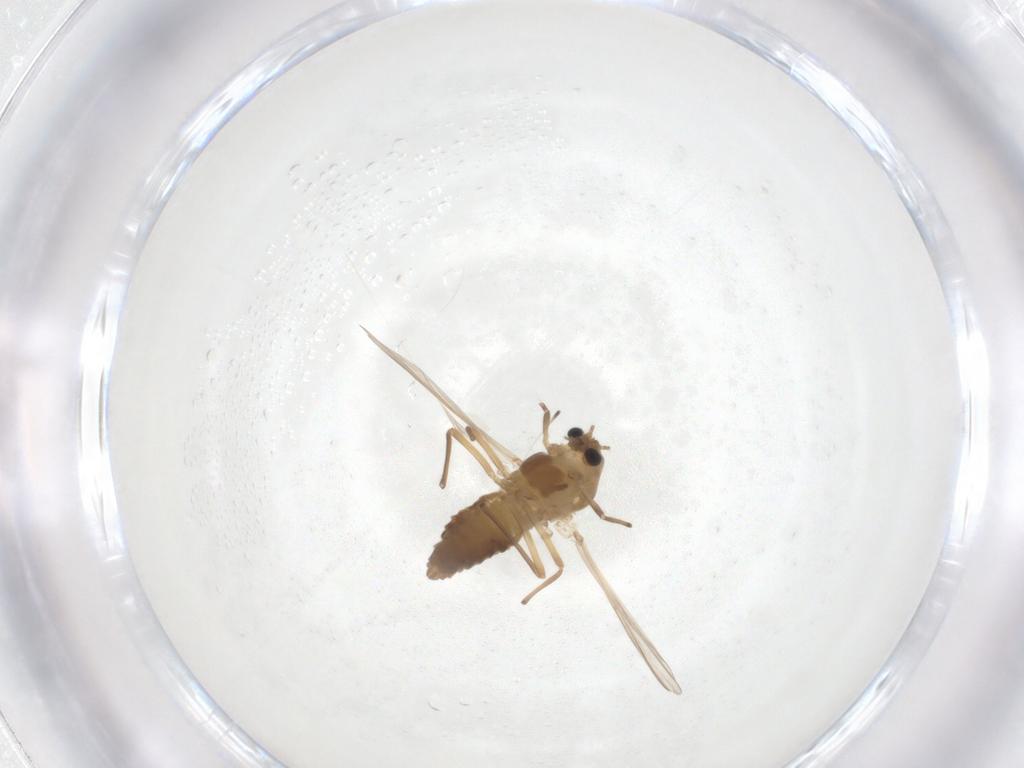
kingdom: Animalia
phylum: Arthropoda
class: Insecta
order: Diptera
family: Chironomidae
